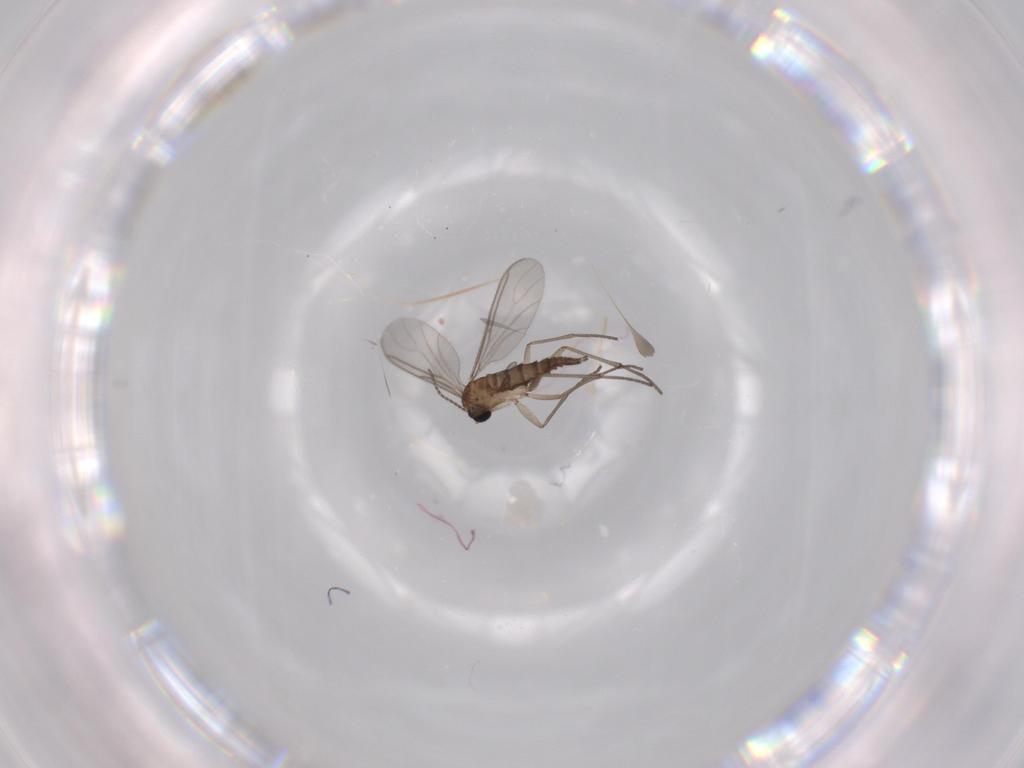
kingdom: Animalia
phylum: Arthropoda
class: Insecta
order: Diptera
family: Sciaridae
